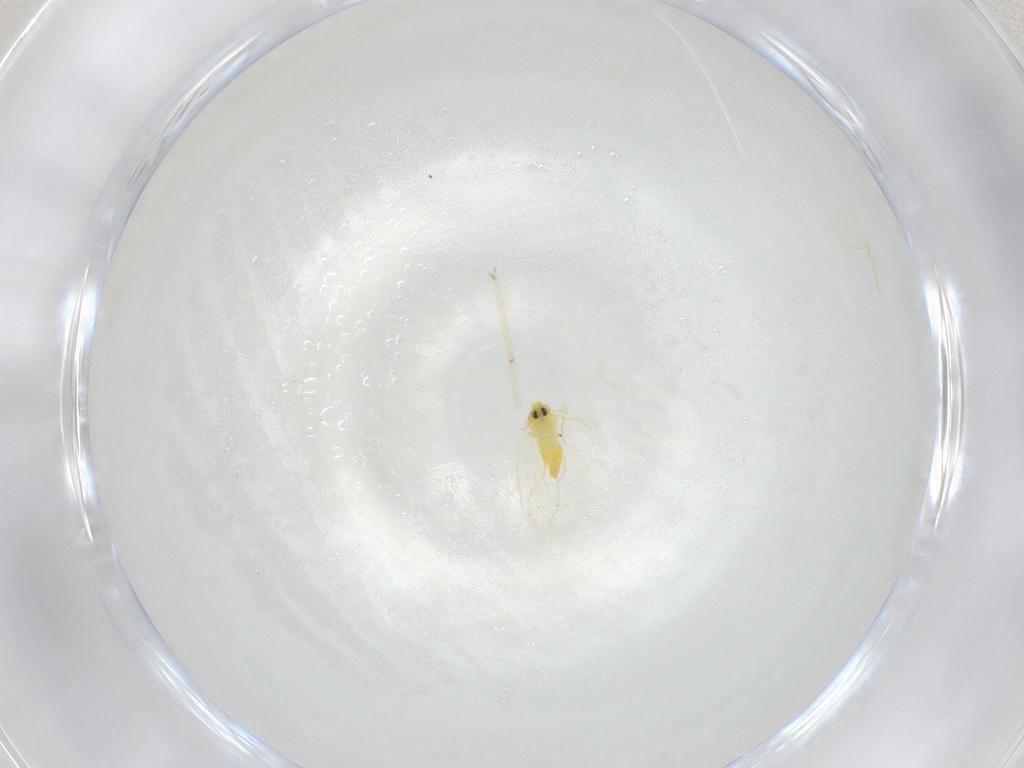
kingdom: Animalia
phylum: Arthropoda
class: Insecta
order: Hemiptera
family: Aleyrodidae
